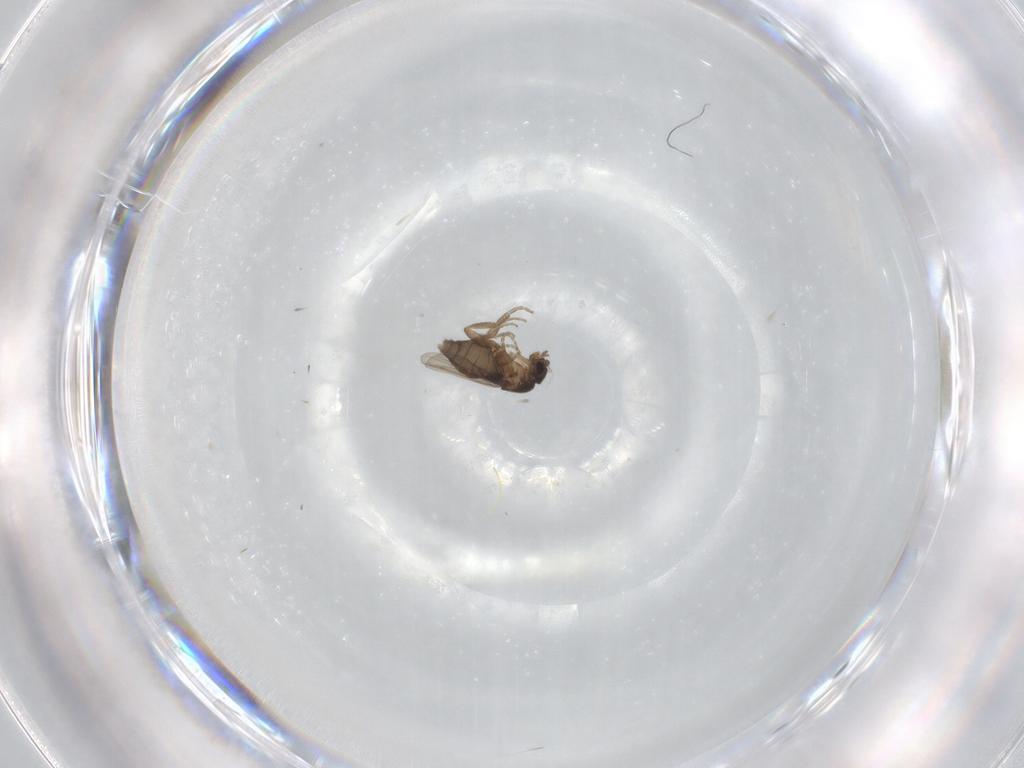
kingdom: Animalia
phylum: Arthropoda
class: Insecta
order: Diptera
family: Phoridae
